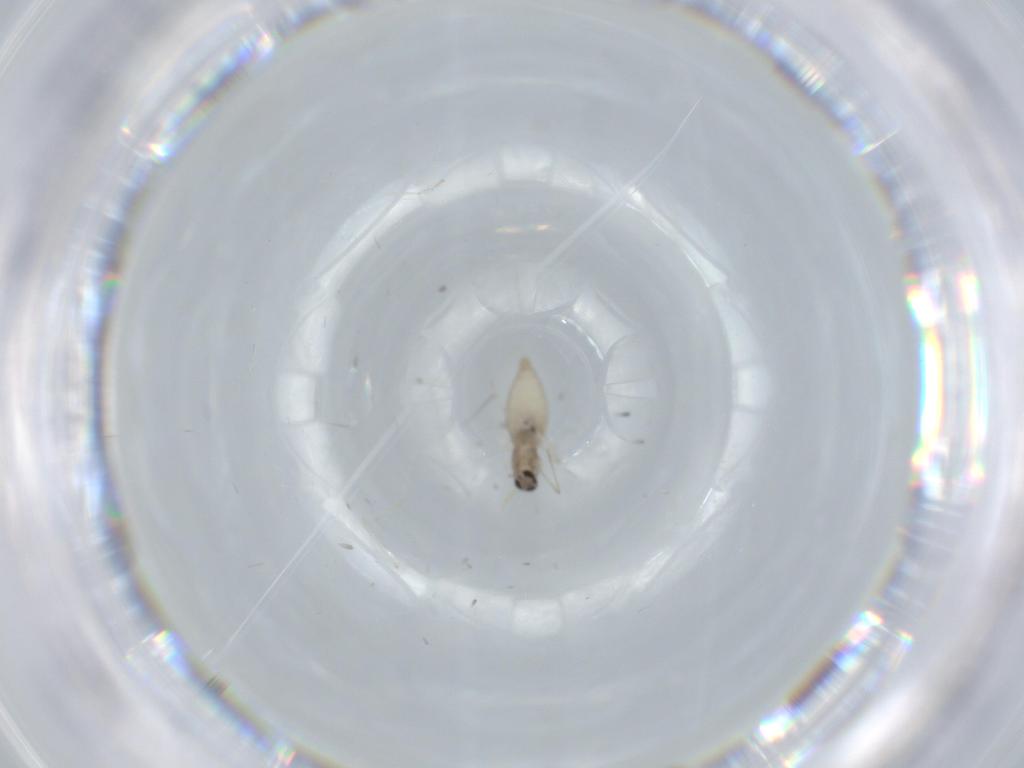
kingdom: Animalia
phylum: Arthropoda
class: Insecta
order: Diptera
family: Cecidomyiidae
